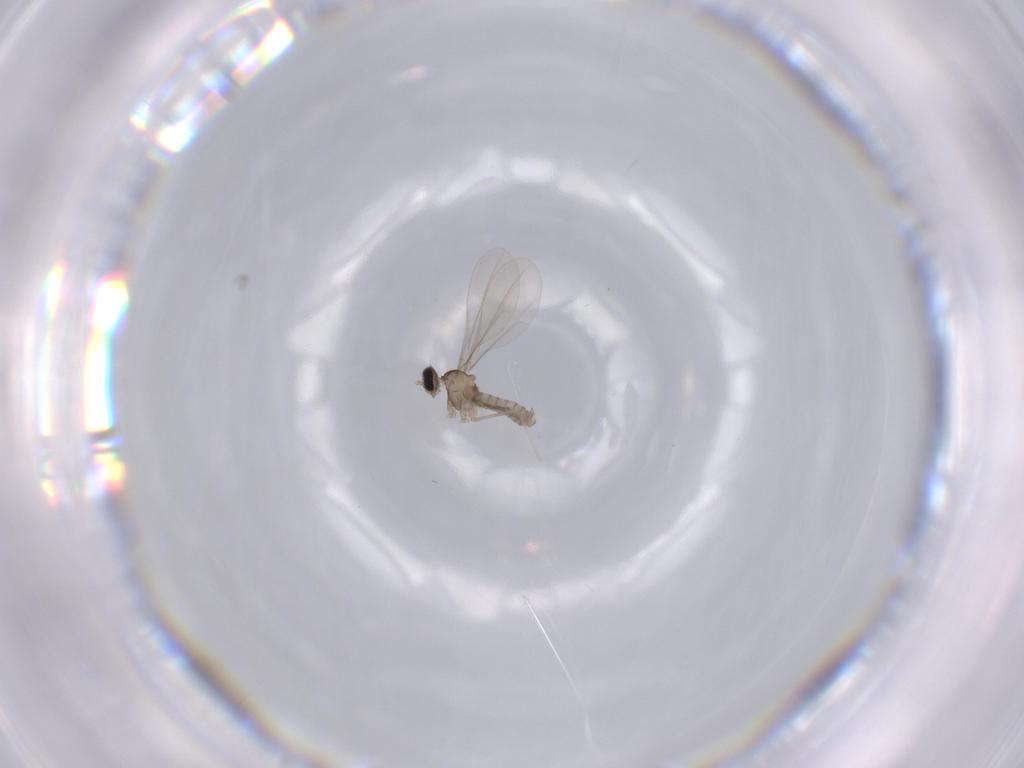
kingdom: Animalia
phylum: Arthropoda
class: Insecta
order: Diptera
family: Cecidomyiidae
